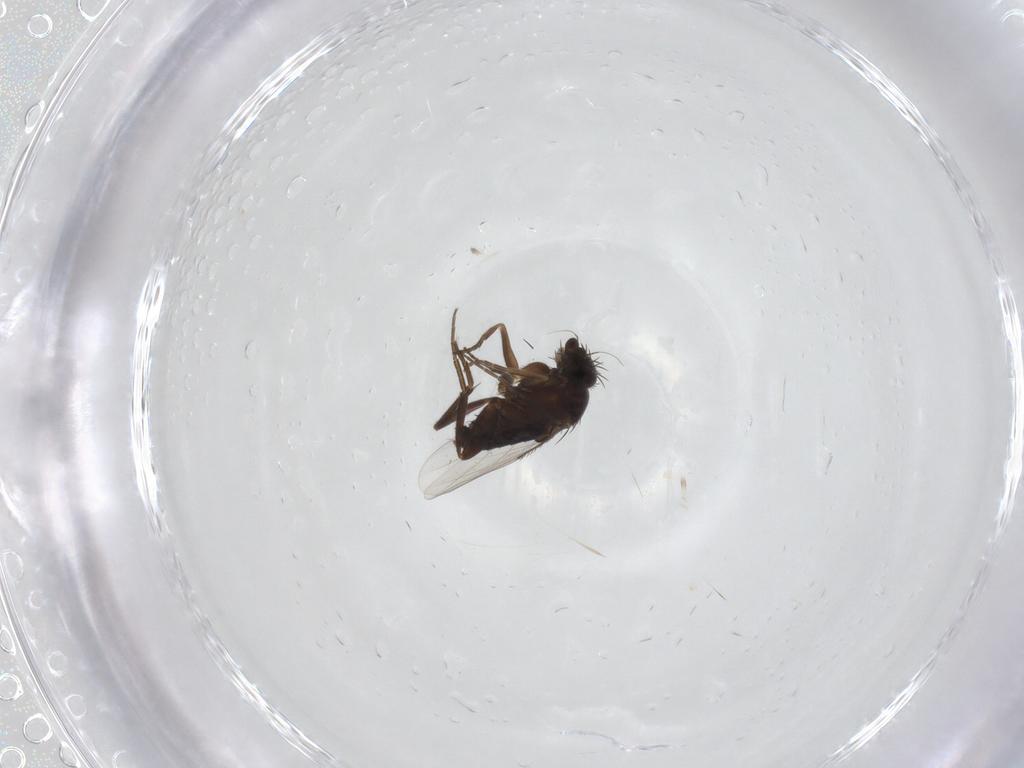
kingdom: Animalia
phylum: Arthropoda
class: Insecta
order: Diptera
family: Phoridae
